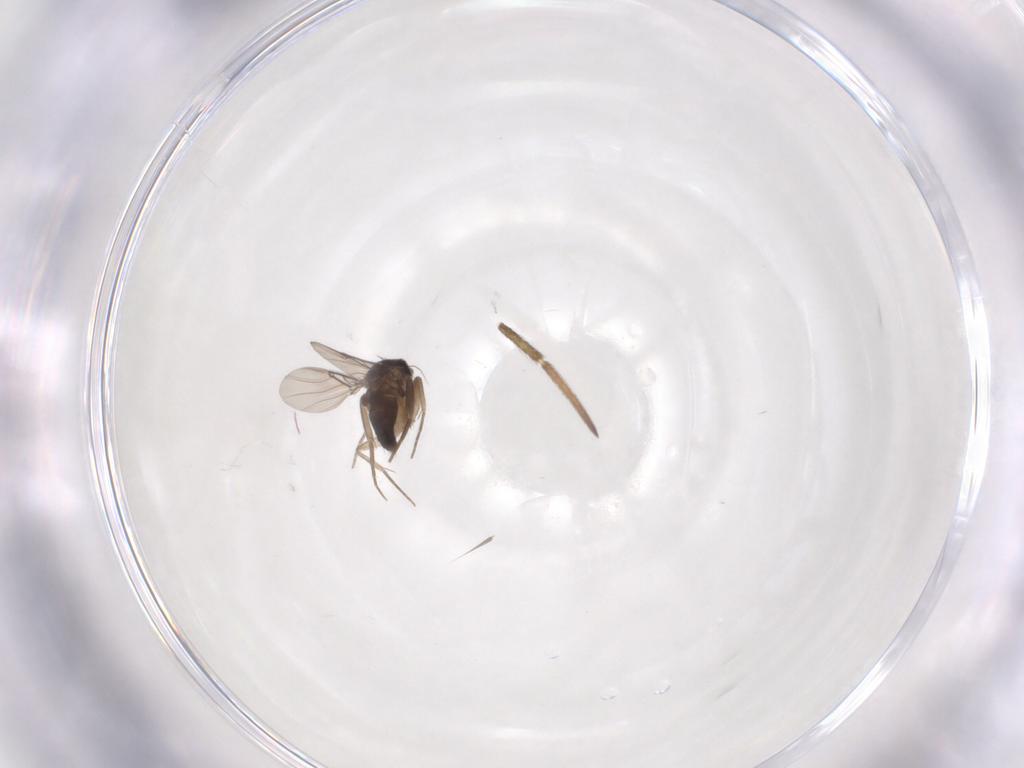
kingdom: Animalia
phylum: Arthropoda
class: Insecta
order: Diptera
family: Phoridae
